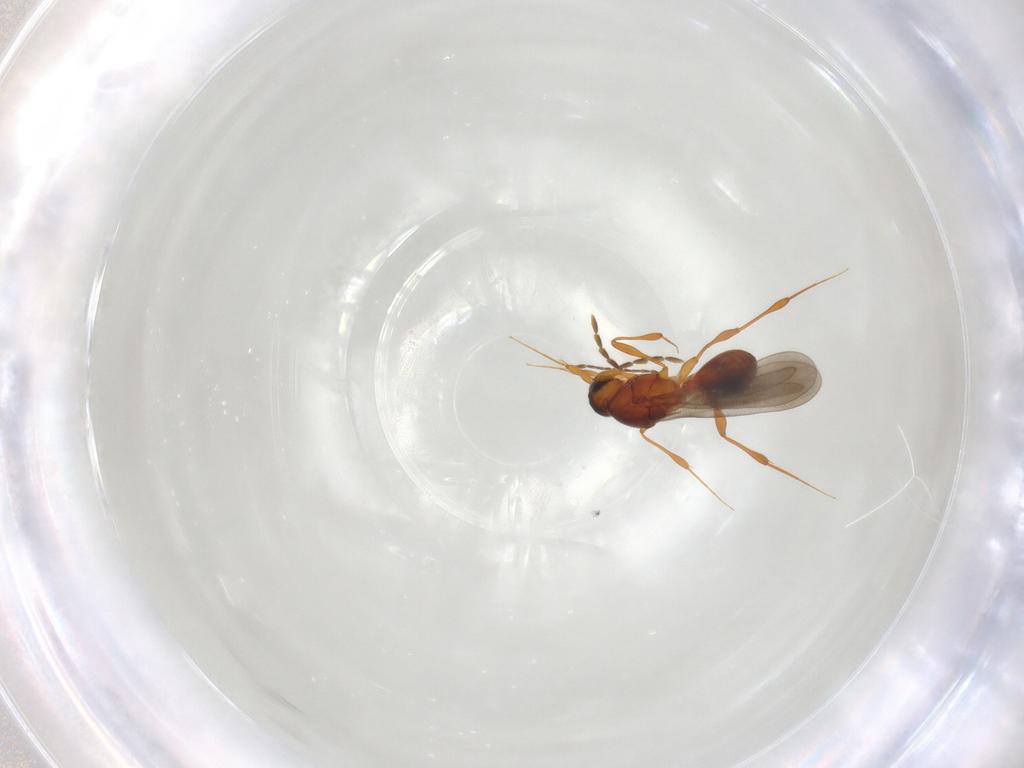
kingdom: Animalia
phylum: Arthropoda
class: Insecta
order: Hymenoptera
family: Platygastridae
